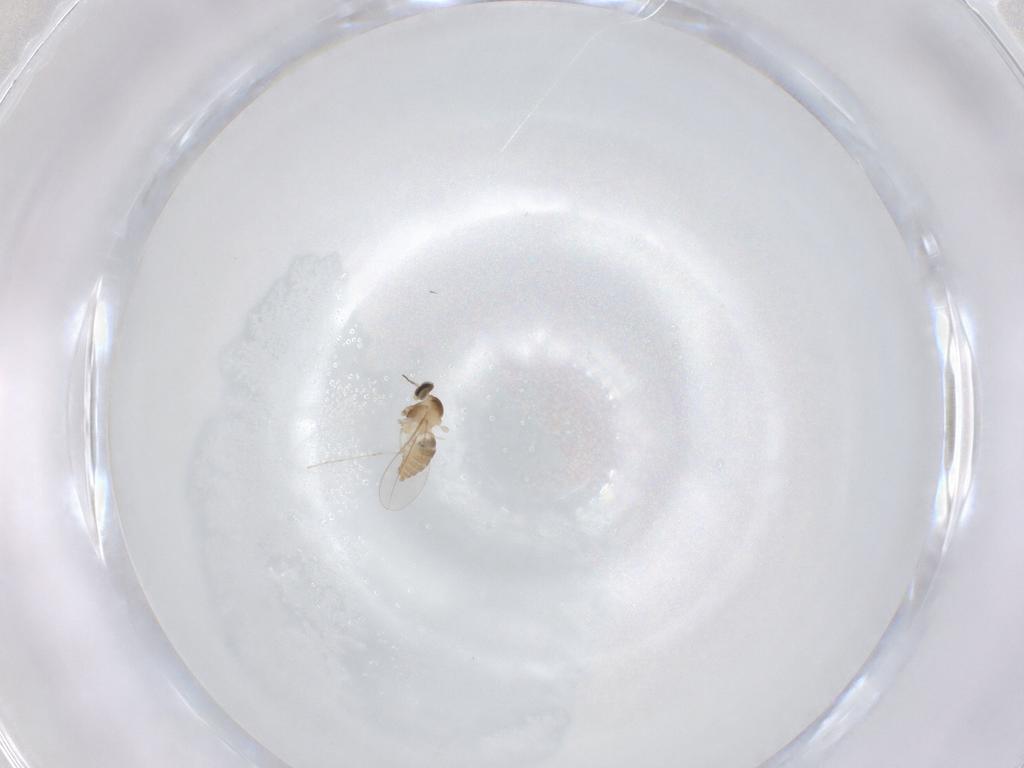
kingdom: Animalia
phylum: Arthropoda
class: Insecta
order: Diptera
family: Cecidomyiidae
